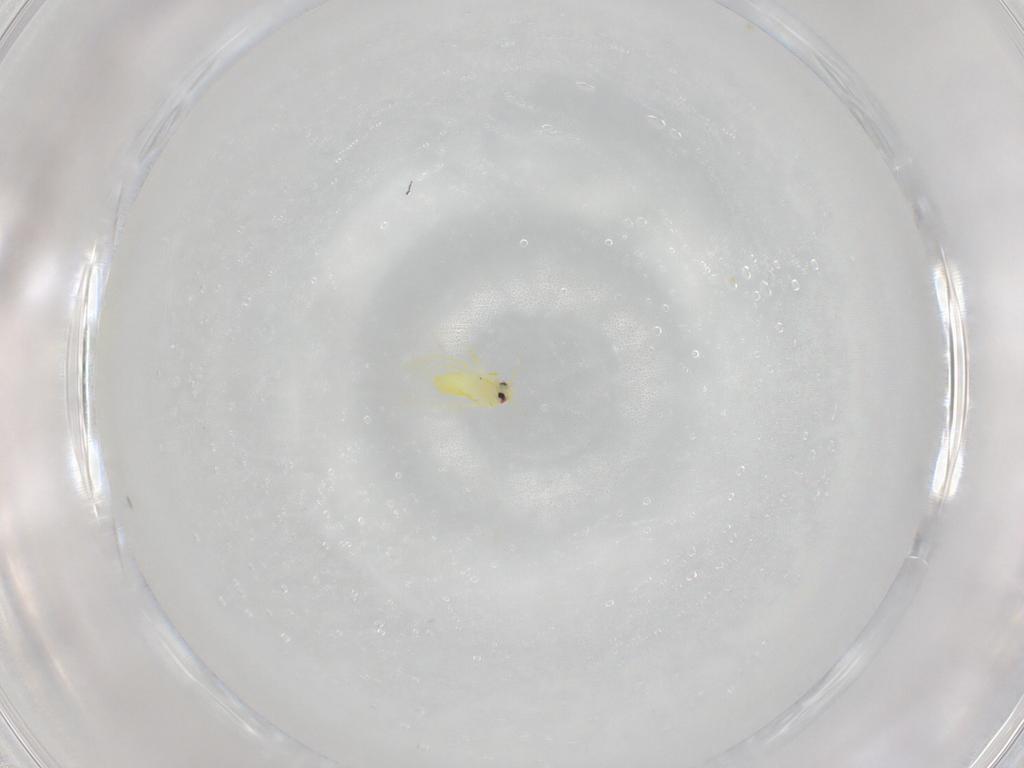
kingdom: Animalia
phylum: Arthropoda
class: Insecta
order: Hemiptera
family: Aleyrodidae
